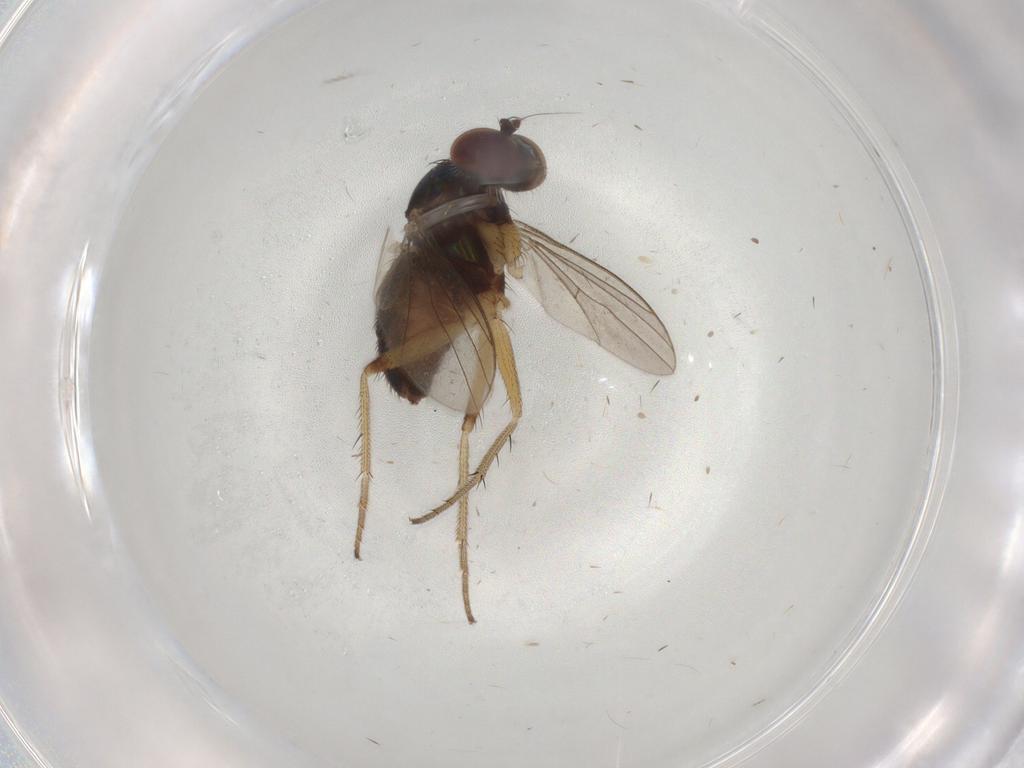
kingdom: Animalia
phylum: Arthropoda
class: Insecta
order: Diptera
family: Dolichopodidae
